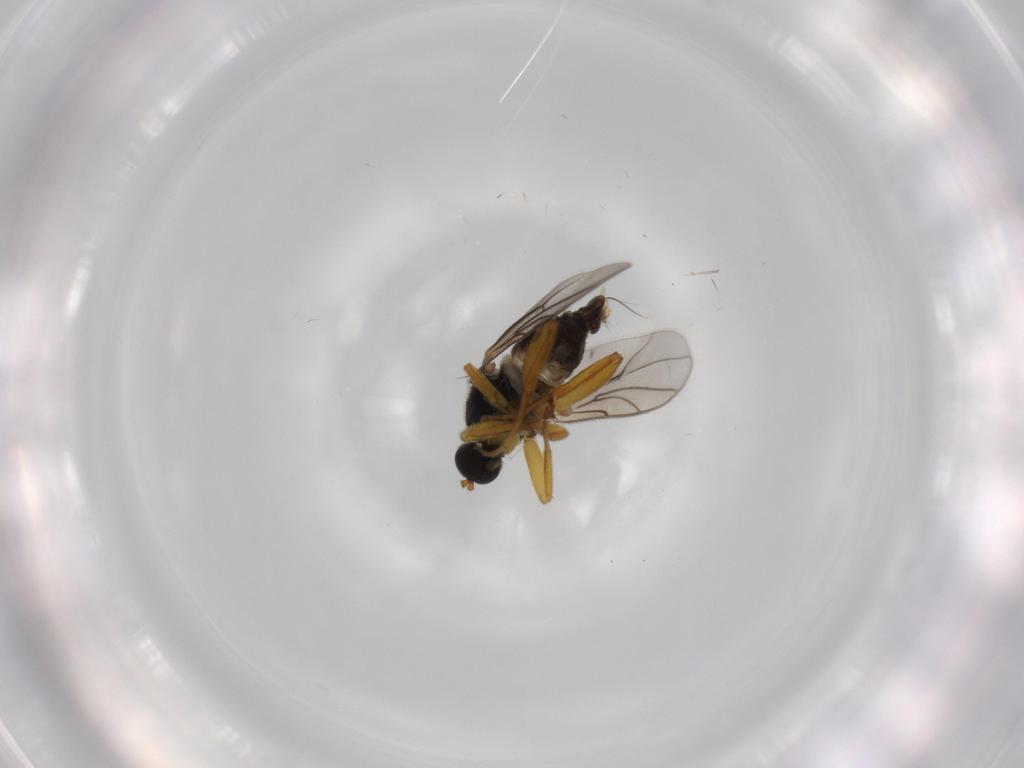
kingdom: Animalia
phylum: Arthropoda
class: Insecta
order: Diptera
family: Hybotidae
